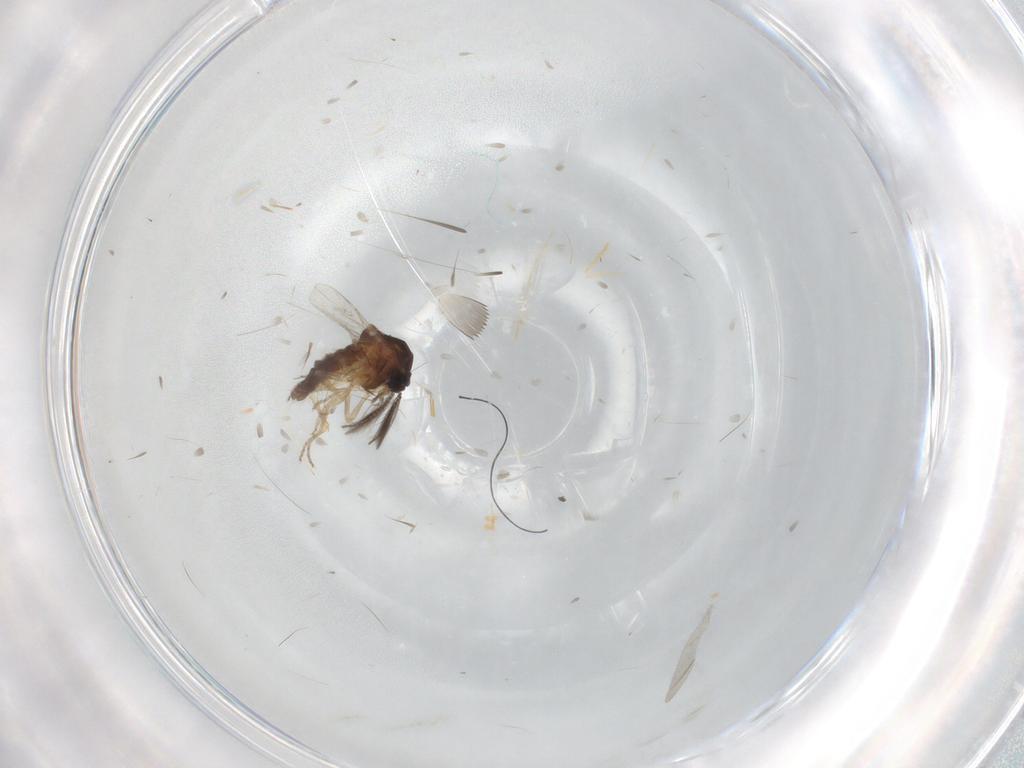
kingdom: Animalia
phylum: Arthropoda
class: Insecta
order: Diptera
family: Ceratopogonidae
